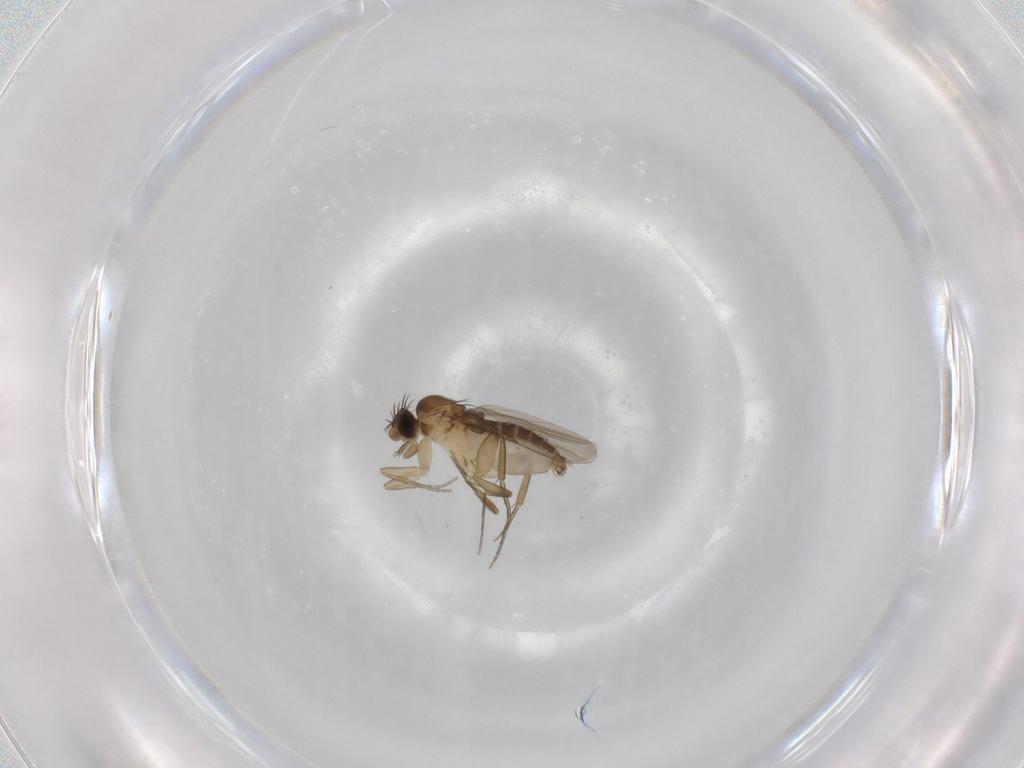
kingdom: Animalia
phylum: Arthropoda
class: Insecta
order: Diptera
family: Phoridae
